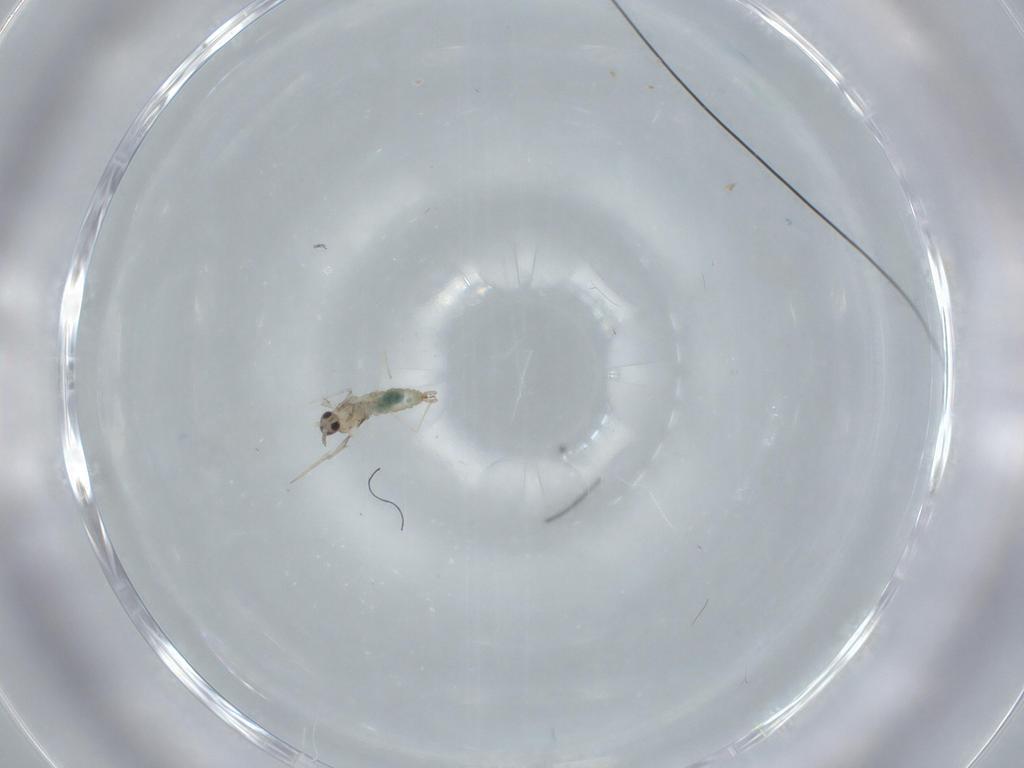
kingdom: Animalia
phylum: Arthropoda
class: Insecta
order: Diptera
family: Cecidomyiidae
